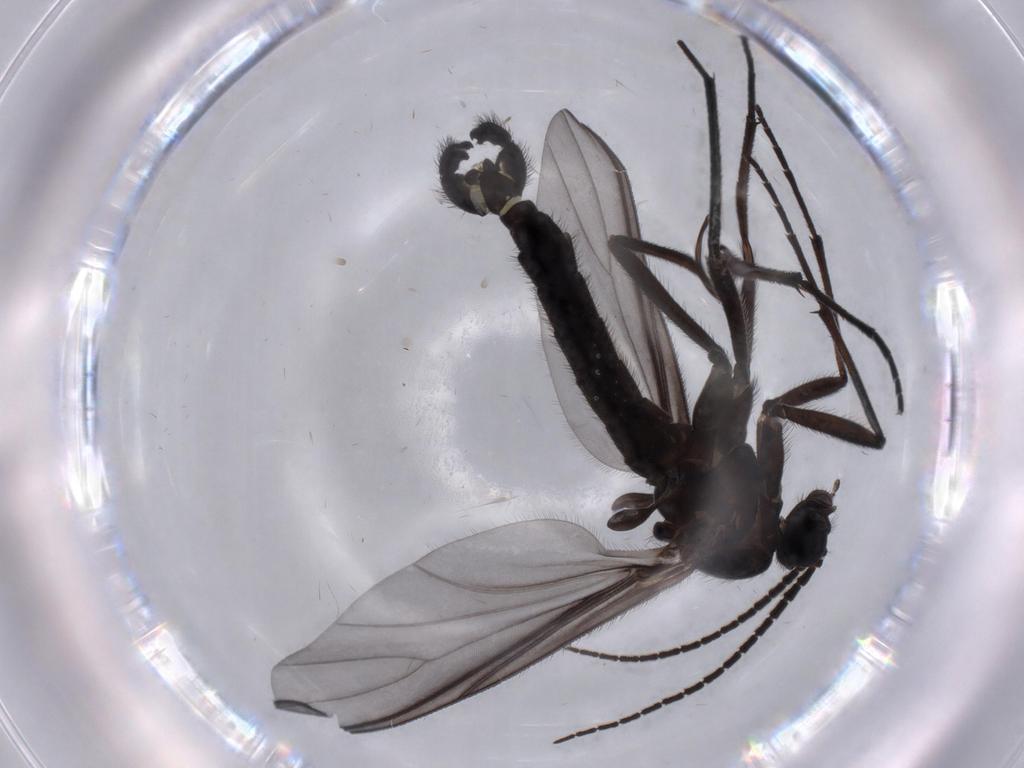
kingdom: Animalia
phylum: Arthropoda
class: Insecta
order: Diptera
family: Cecidomyiidae
